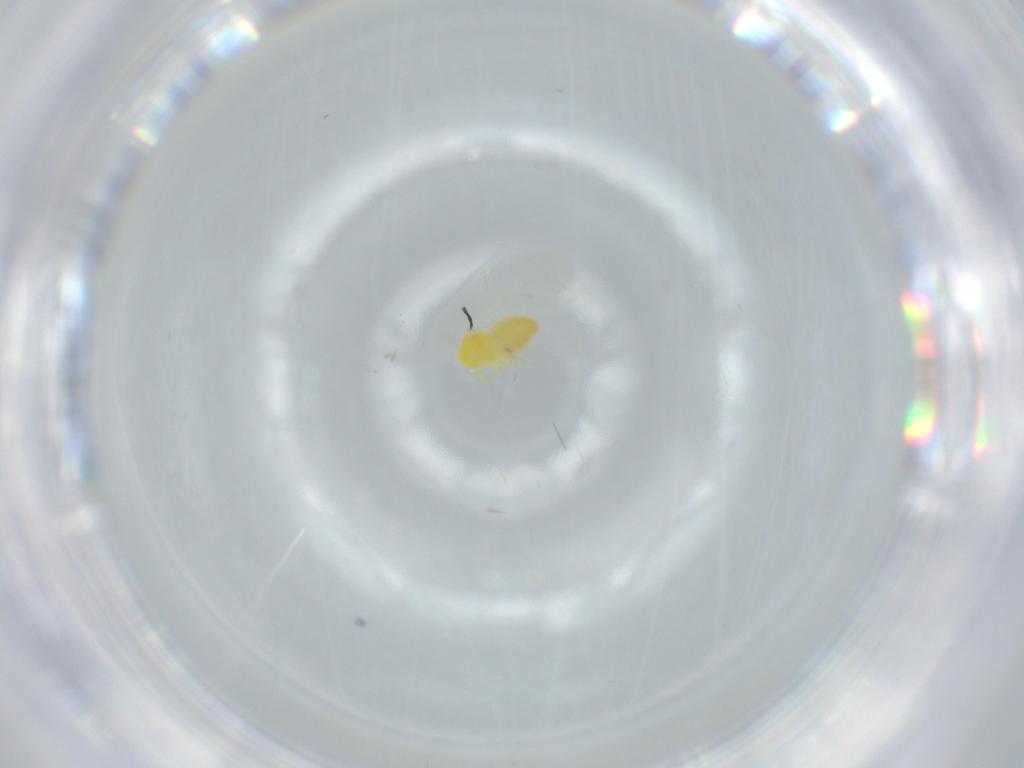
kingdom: Animalia
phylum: Arthropoda
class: Insecta
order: Hemiptera
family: Aleyrodidae
